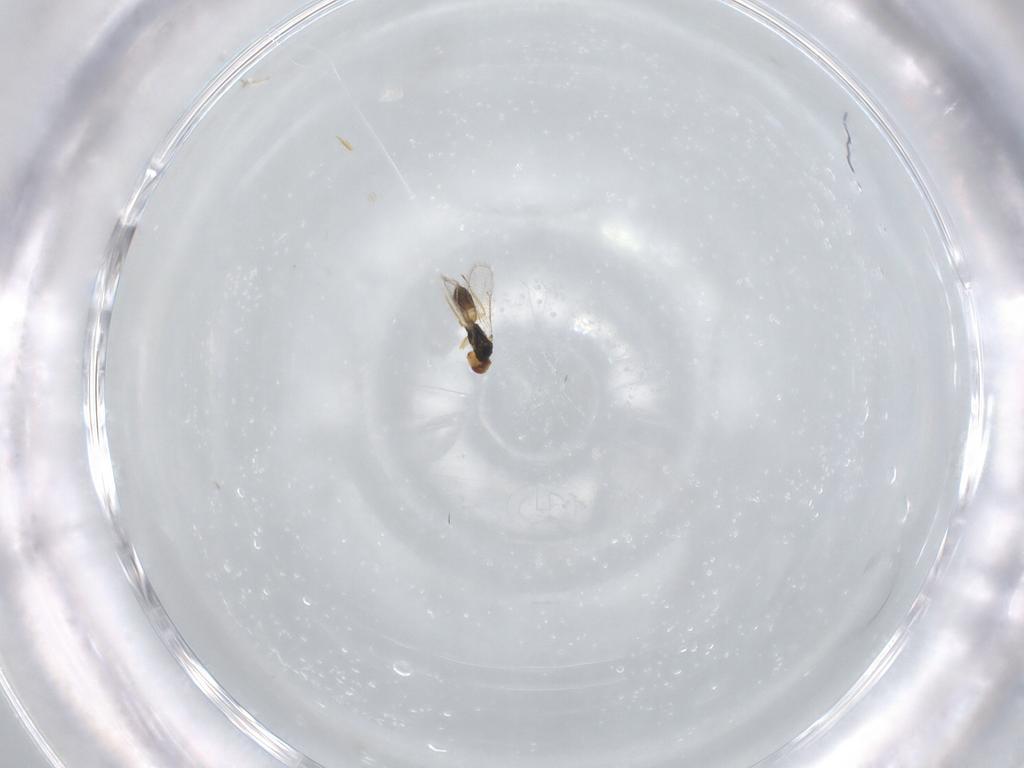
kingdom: Animalia
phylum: Arthropoda
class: Insecta
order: Hymenoptera
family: Eulophidae
